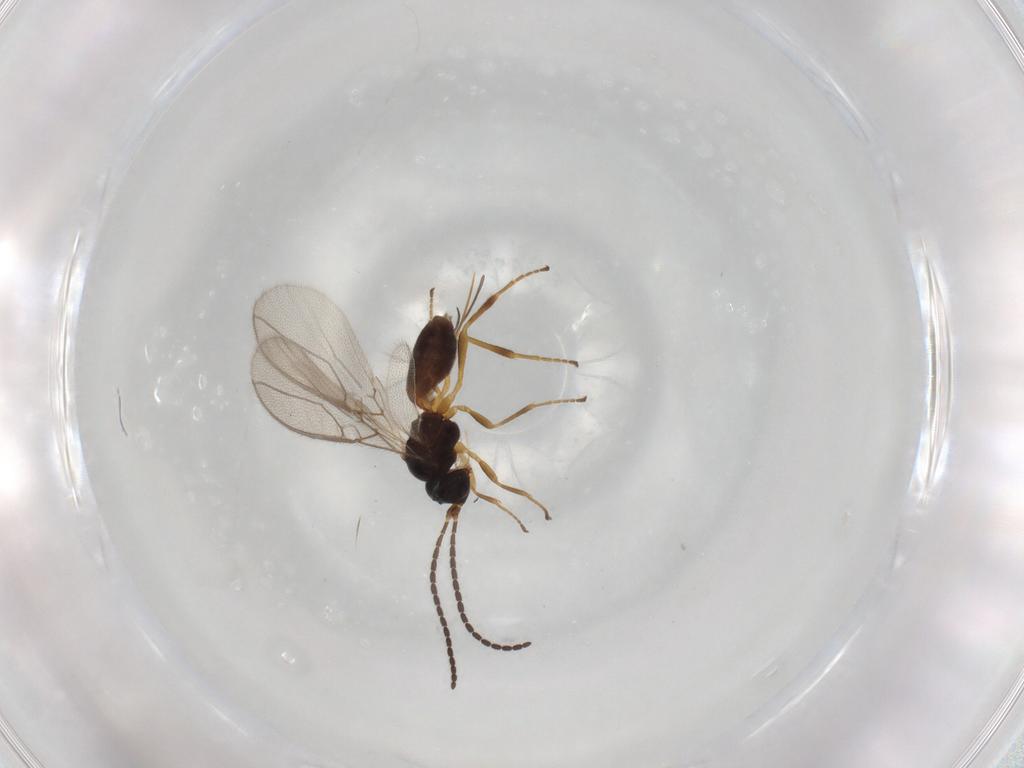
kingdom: Animalia
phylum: Arthropoda
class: Insecta
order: Hymenoptera
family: Braconidae
